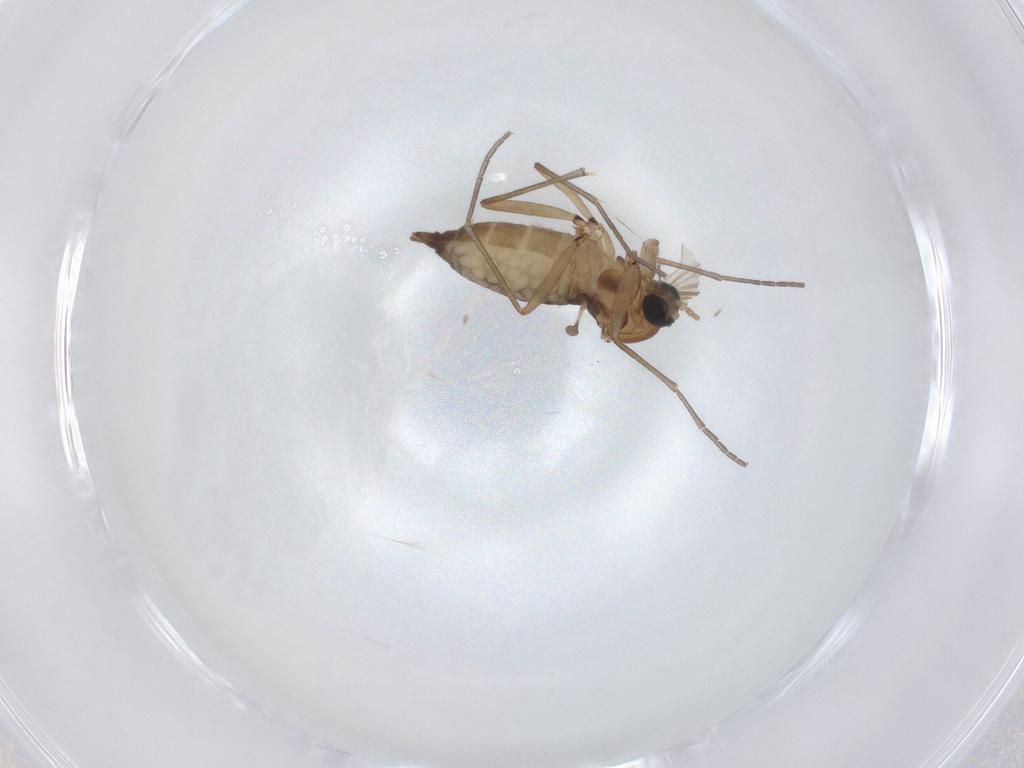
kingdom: Animalia
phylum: Arthropoda
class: Insecta
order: Diptera
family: Sciaridae
